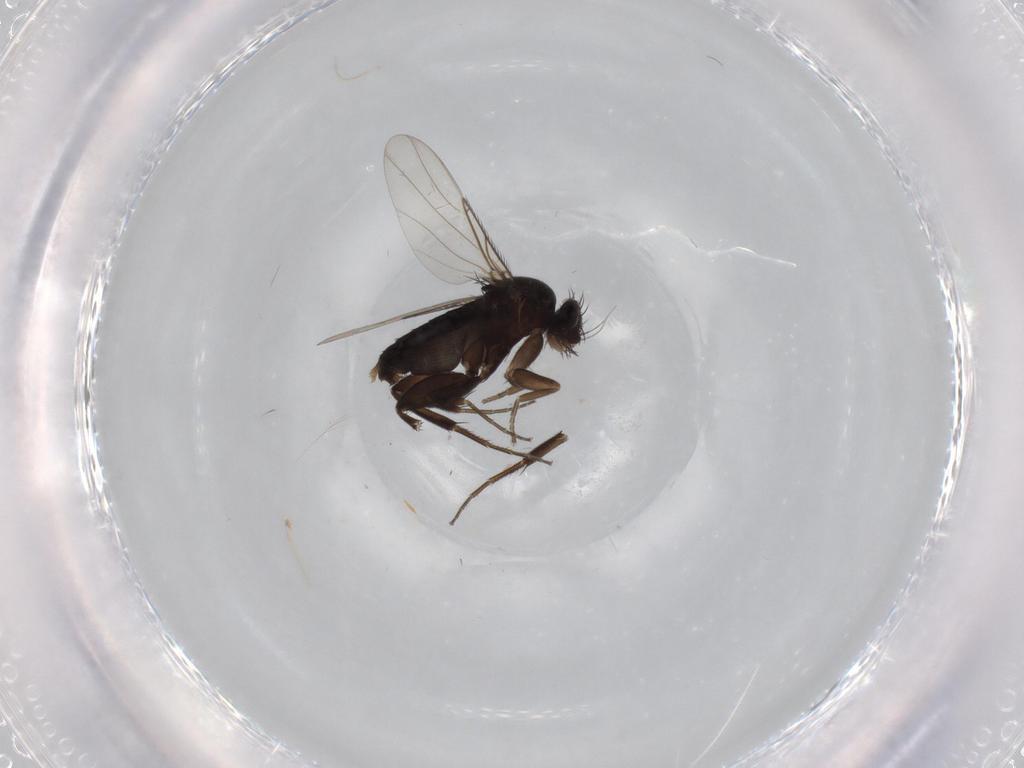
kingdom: Animalia
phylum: Arthropoda
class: Insecta
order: Diptera
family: Phoridae
